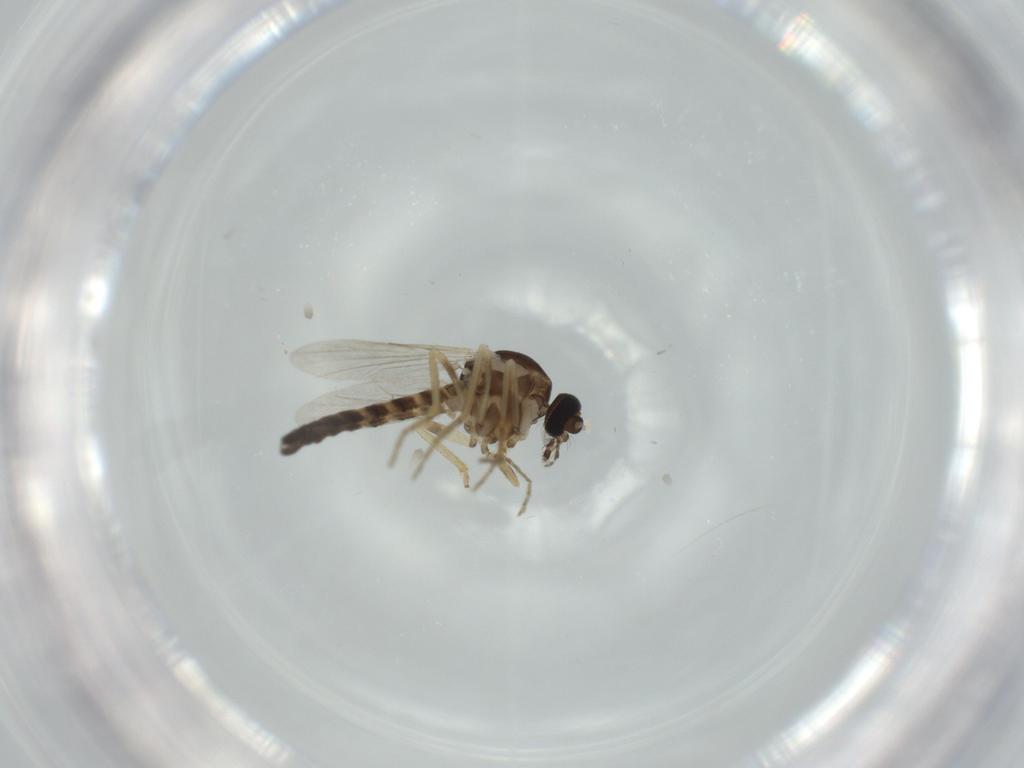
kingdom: Animalia
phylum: Arthropoda
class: Insecta
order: Diptera
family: Ceratopogonidae
